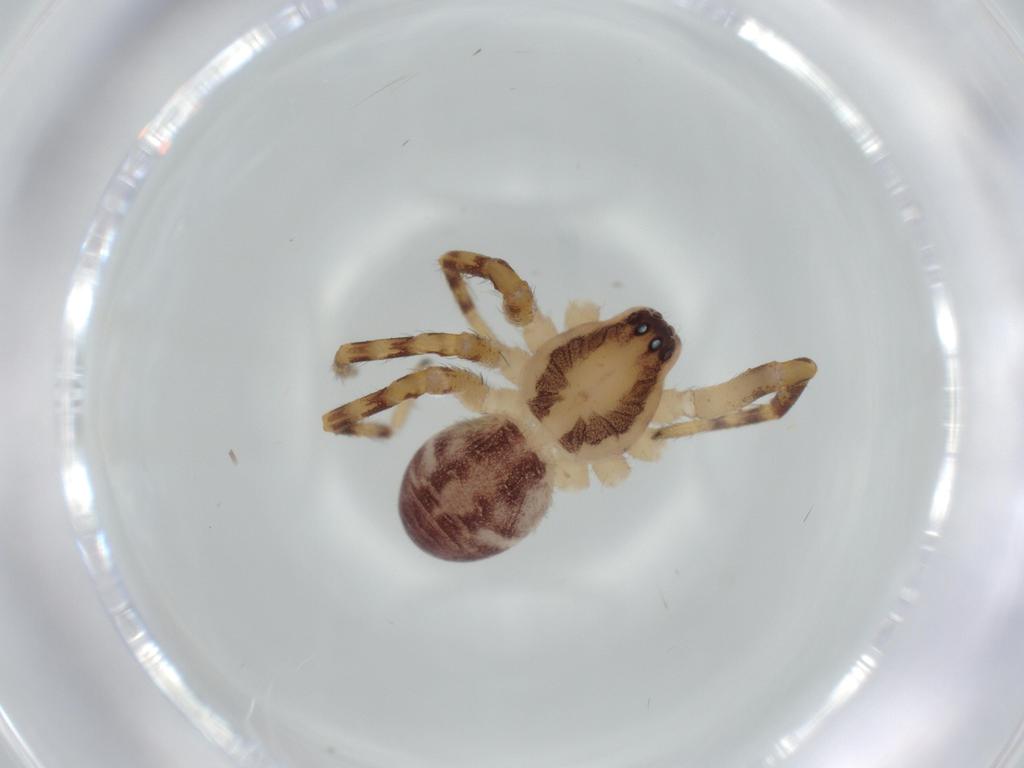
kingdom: Animalia
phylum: Arthropoda
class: Arachnida
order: Araneae
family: Corinnidae
